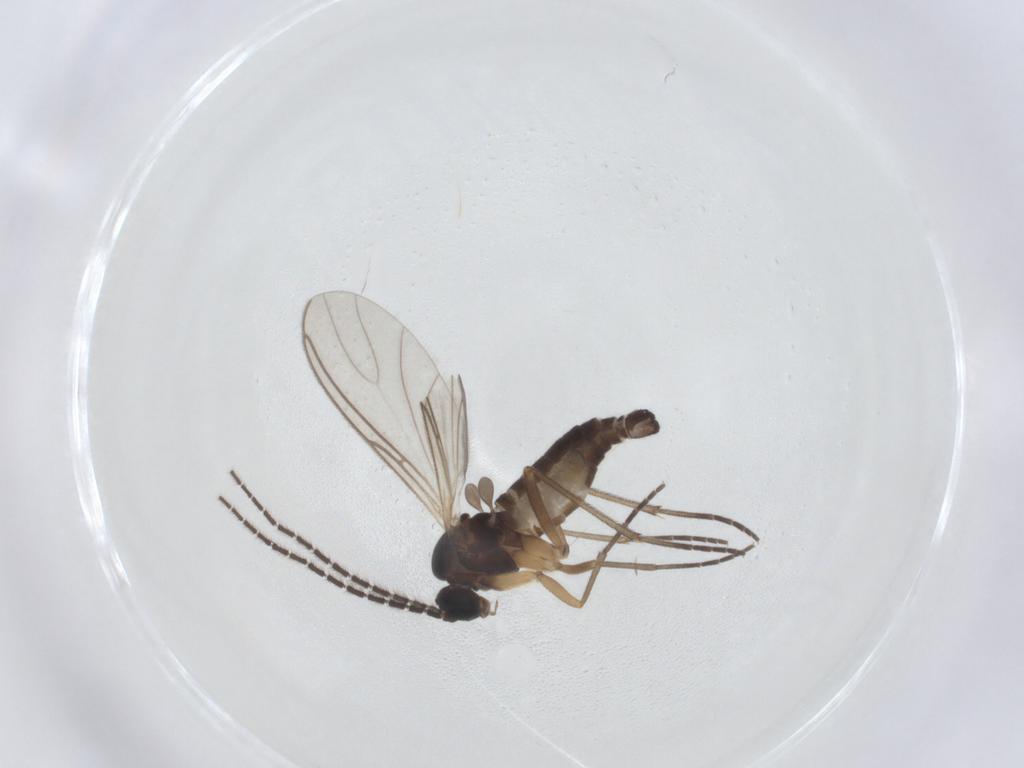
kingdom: Animalia
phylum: Arthropoda
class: Insecta
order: Diptera
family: Sciaridae
